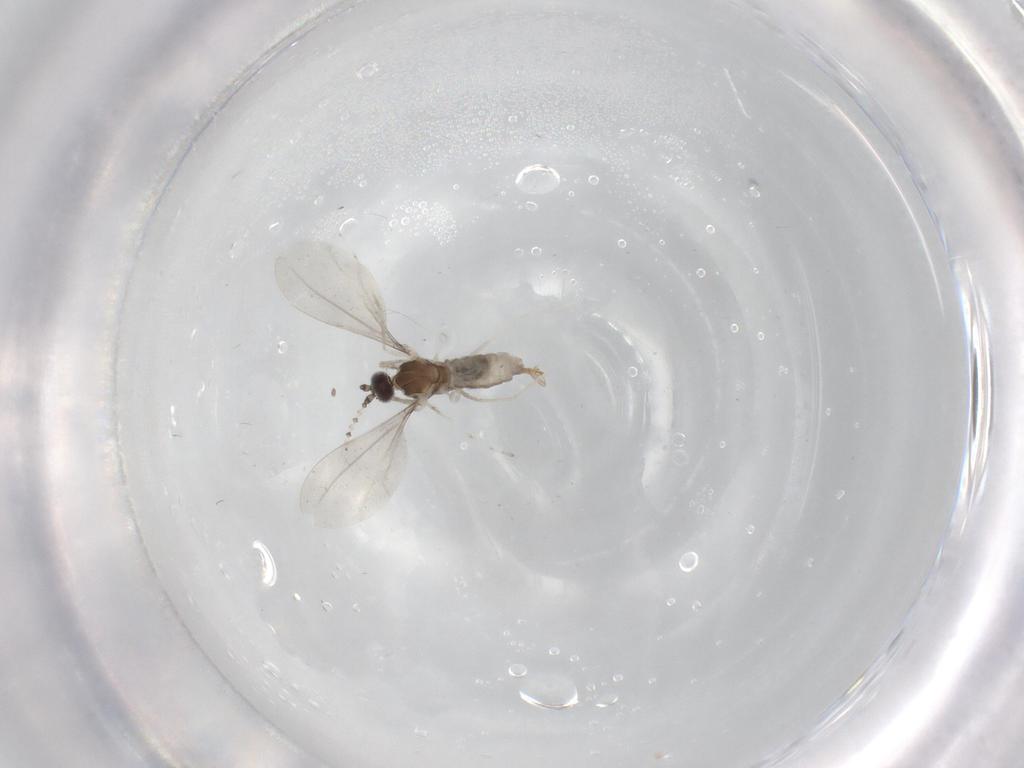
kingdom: Animalia
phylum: Arthropoda
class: Insecta
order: Diptera
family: Cecidomyiidae
